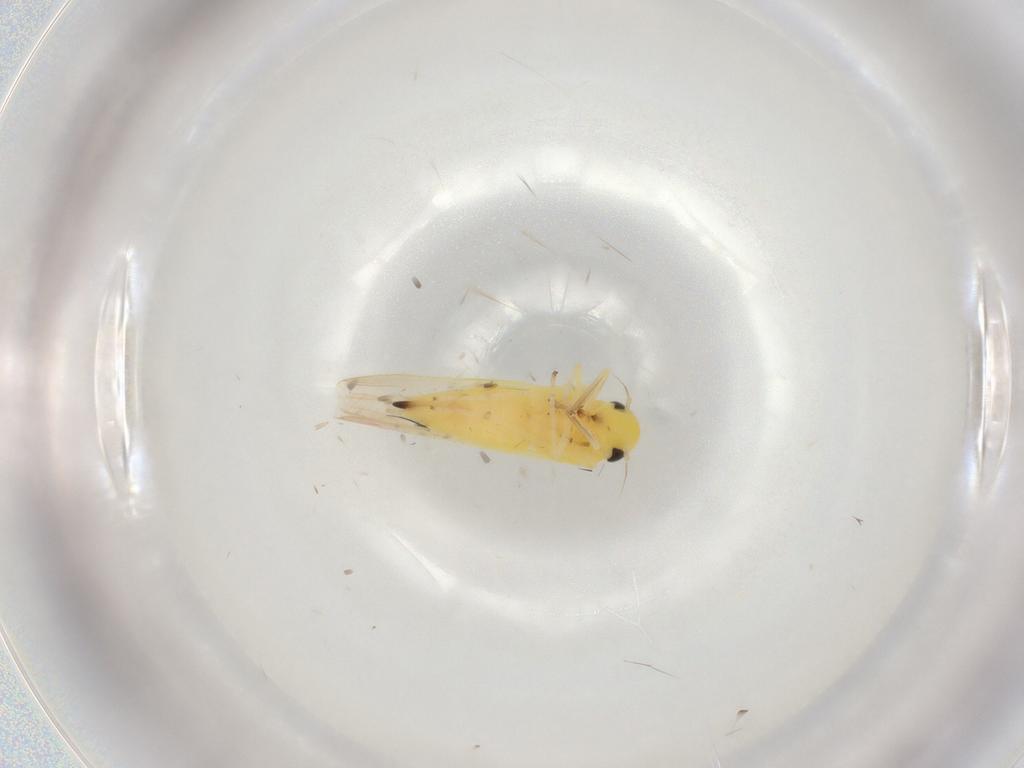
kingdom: Animalia
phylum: Arthropoda
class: Insecta
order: Hemiptera
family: Cicadellidae
